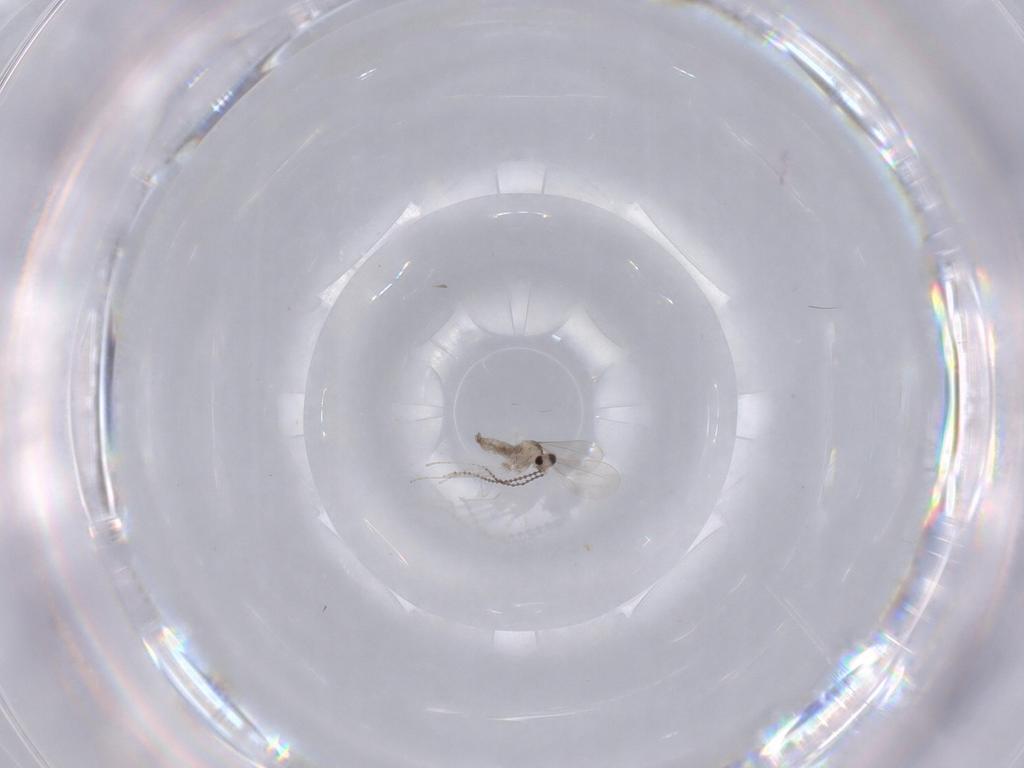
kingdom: Animalia
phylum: Arthropoda
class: Insecta
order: Diptera
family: Cecidomyiidae
